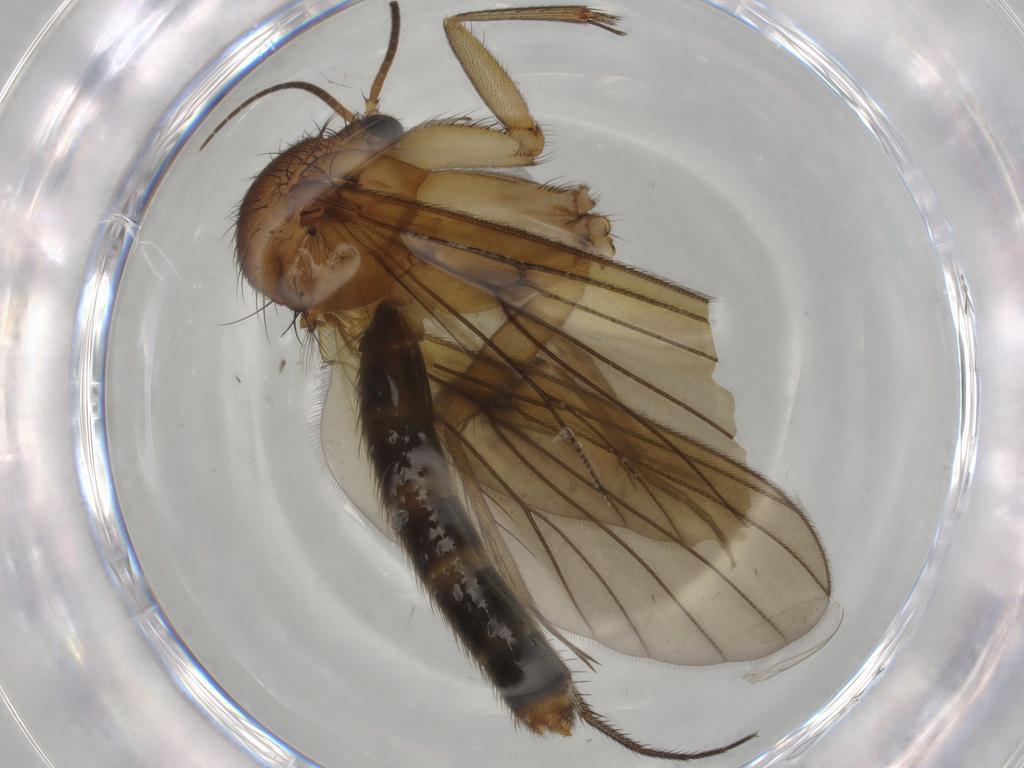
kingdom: Animalia
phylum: Arthropoda
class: Insecta
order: Diptera
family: Mycetophilidae
